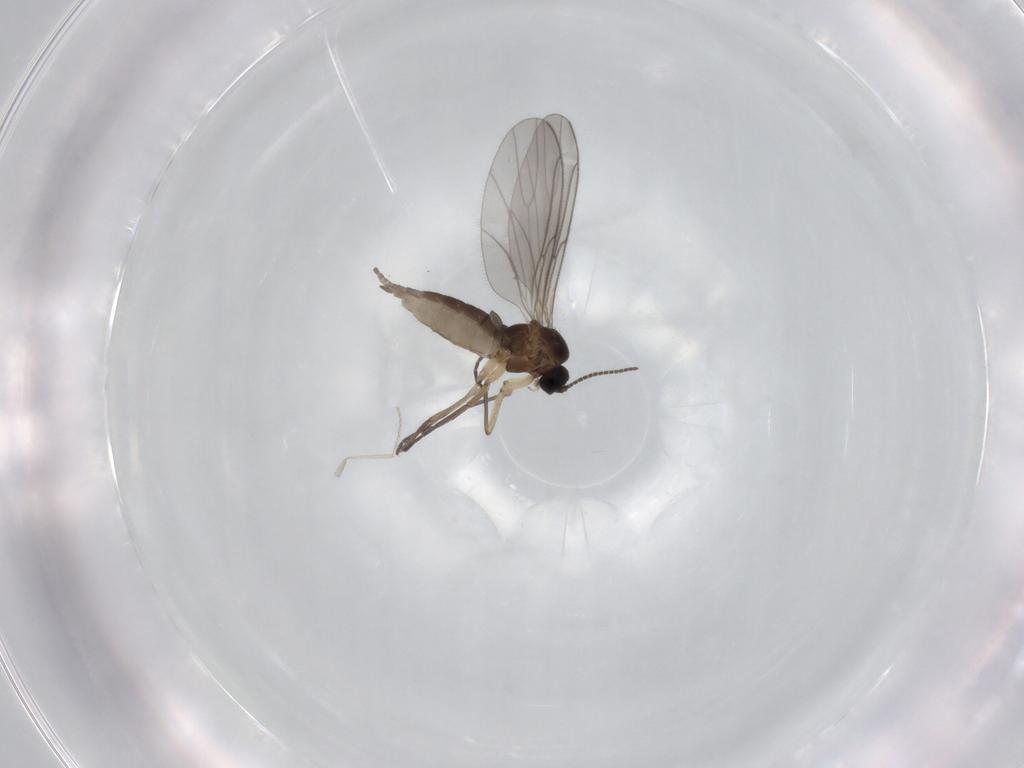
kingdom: Animalia
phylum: Arthropoda
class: Insecta
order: Diptera
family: Sciaridae
